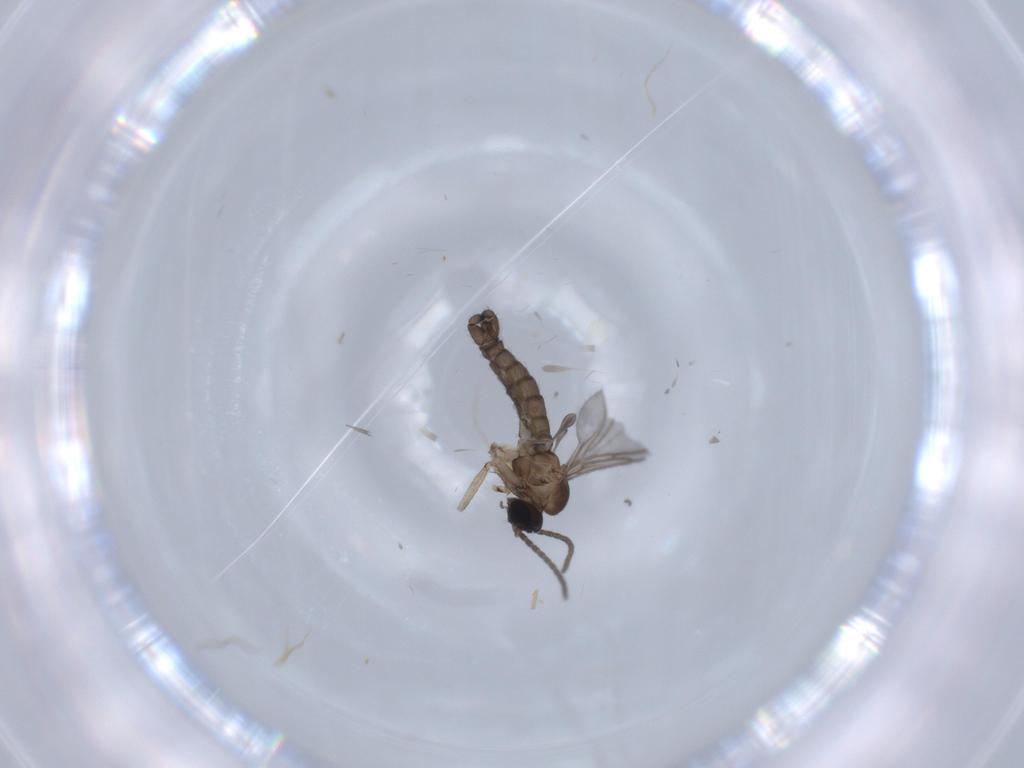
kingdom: Animalia
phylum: Arthropoda
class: Insecta
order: Diptera
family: Sciaridae
